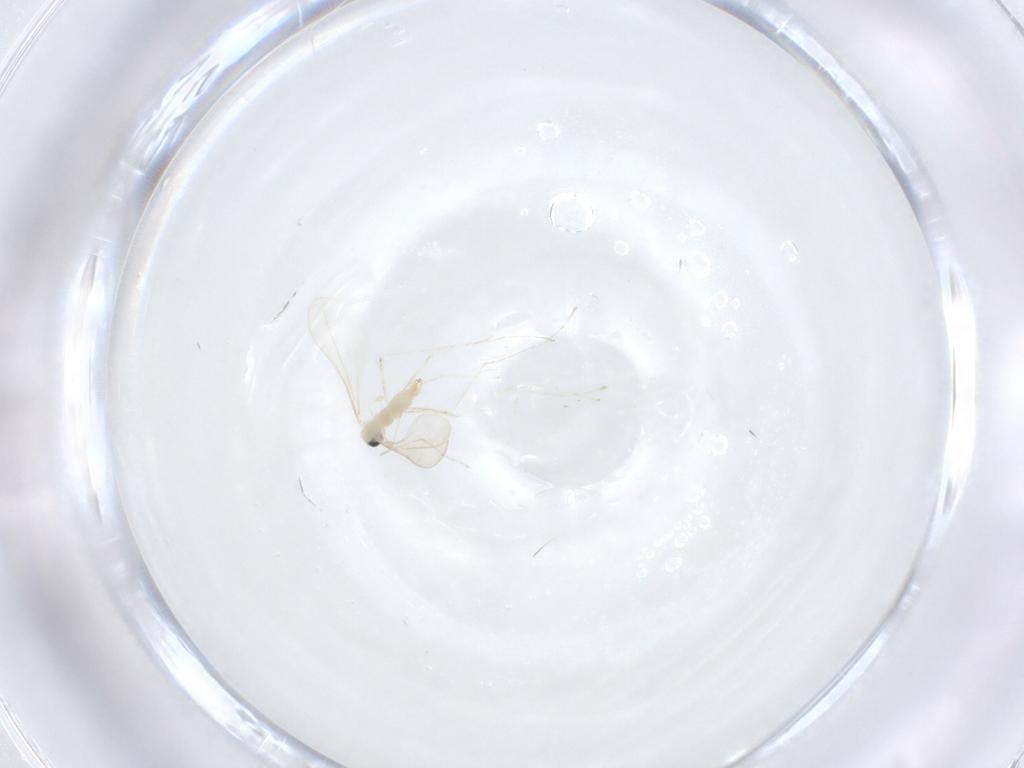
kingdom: Animalia
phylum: Arthropoda
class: Insecta
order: Diptera
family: Cecidomyiidae
